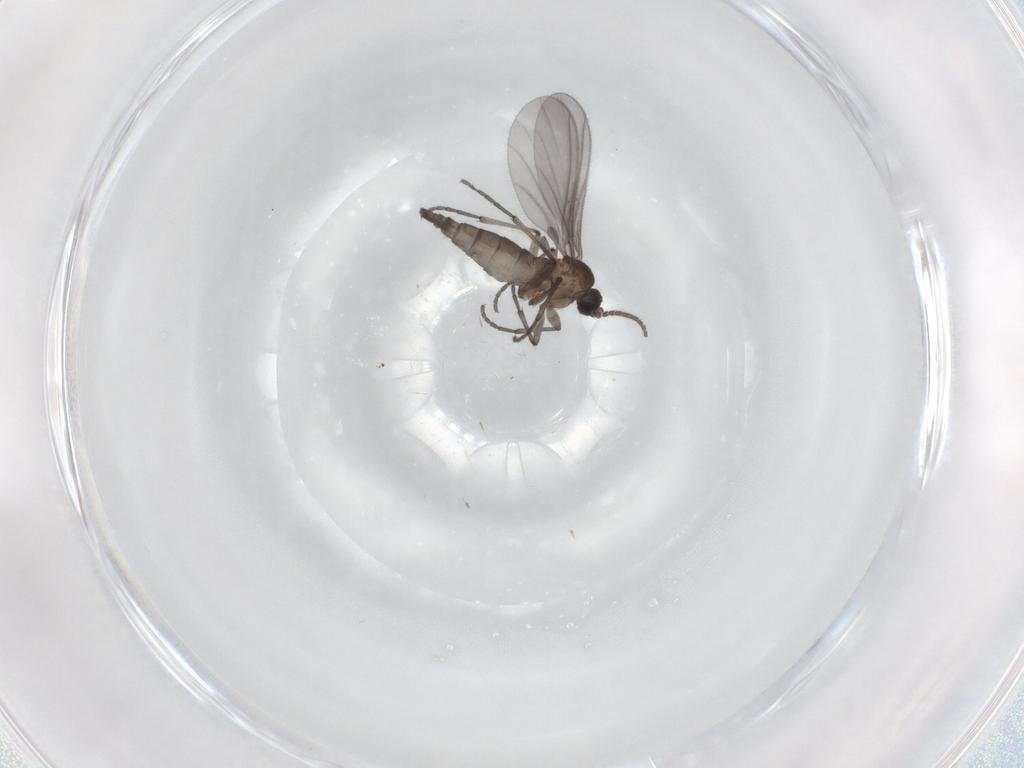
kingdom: Animalia
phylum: Arthropoda
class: Insecta
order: Diptera
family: Sciaridae
